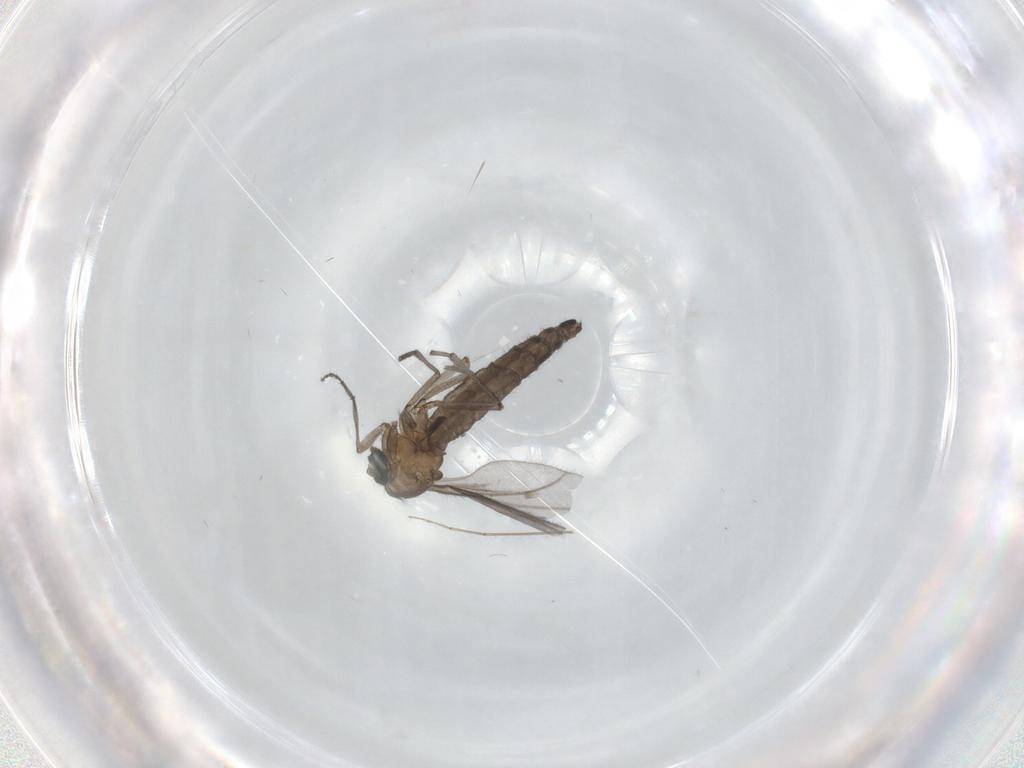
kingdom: Animalia
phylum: Arthropoda
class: Insecta
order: Diptera
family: Sciaridae
